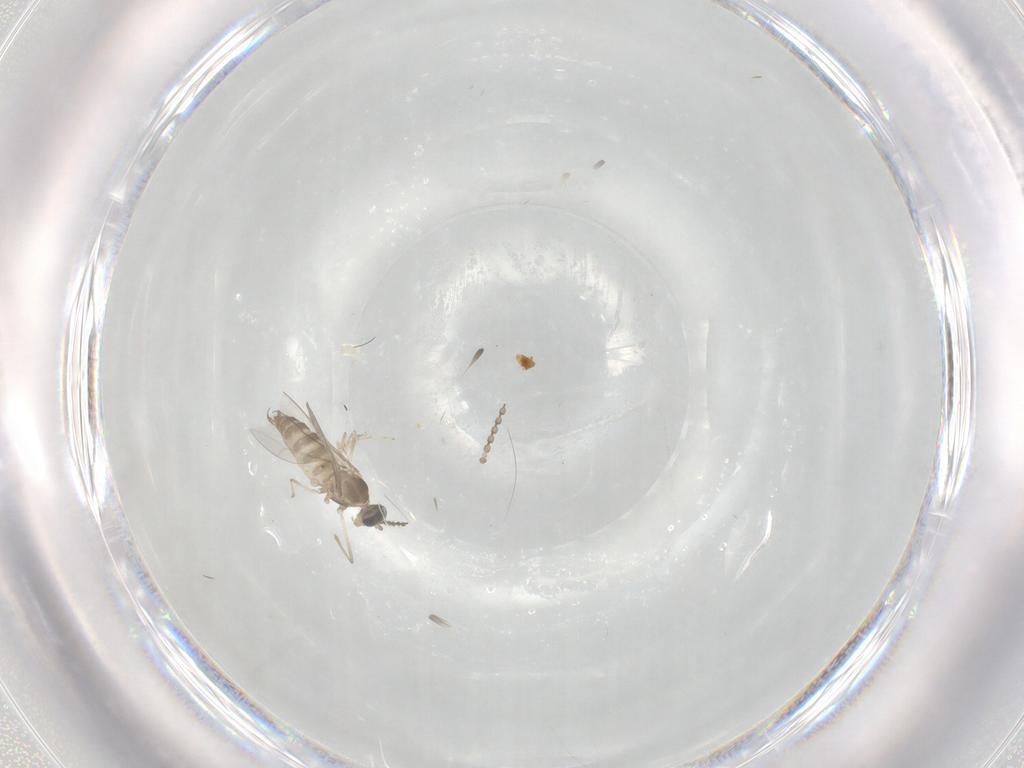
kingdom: Animalia
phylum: Arthropoda
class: Insecta
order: Diptera
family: Cecidomyiidae
